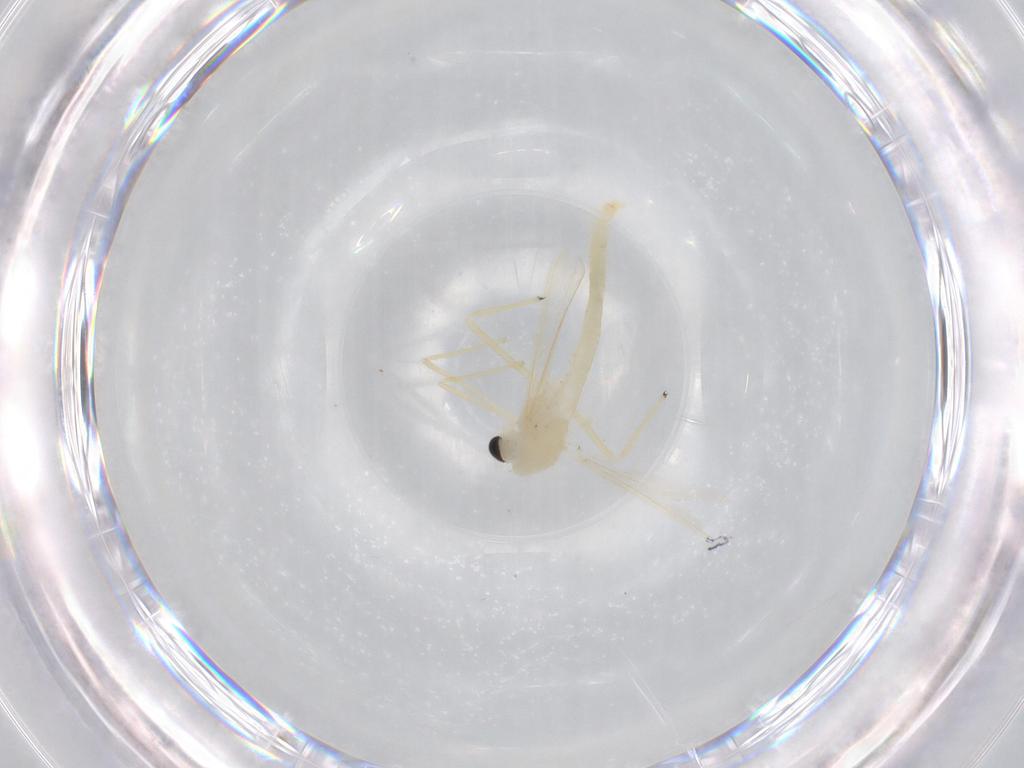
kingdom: Animalia
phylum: Arthropoda
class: Insecta
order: Diptera
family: Chironomidae
